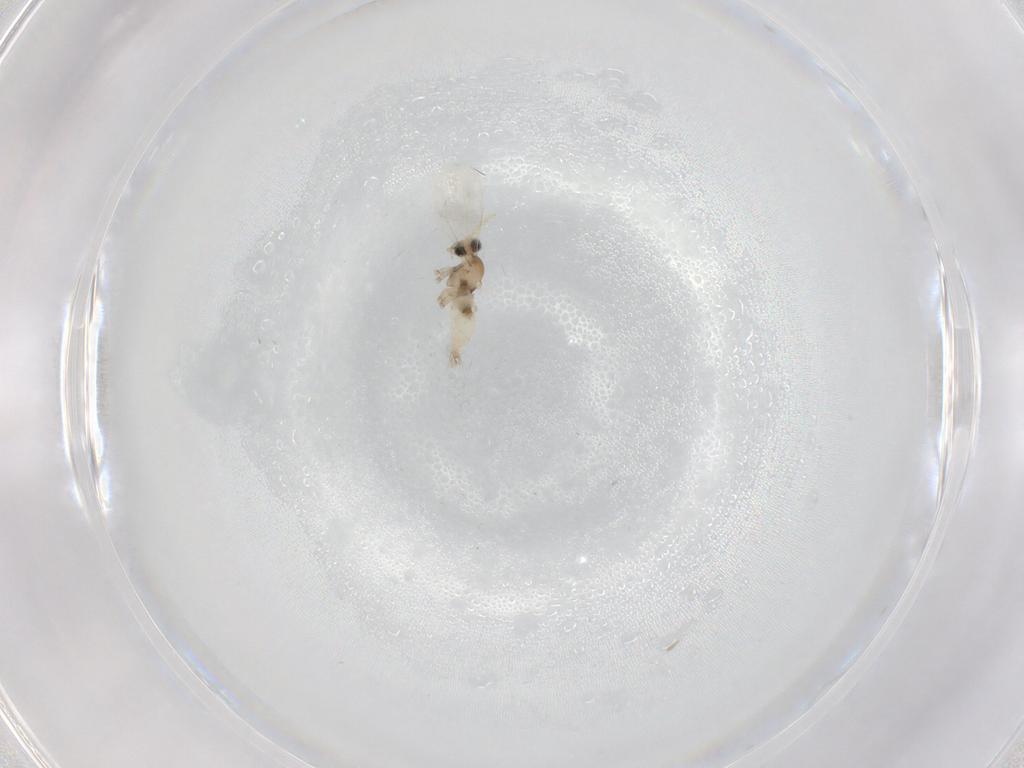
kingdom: Animalia
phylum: Arthropoda
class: Insecta
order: Diptera
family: Cecidomyiidae
